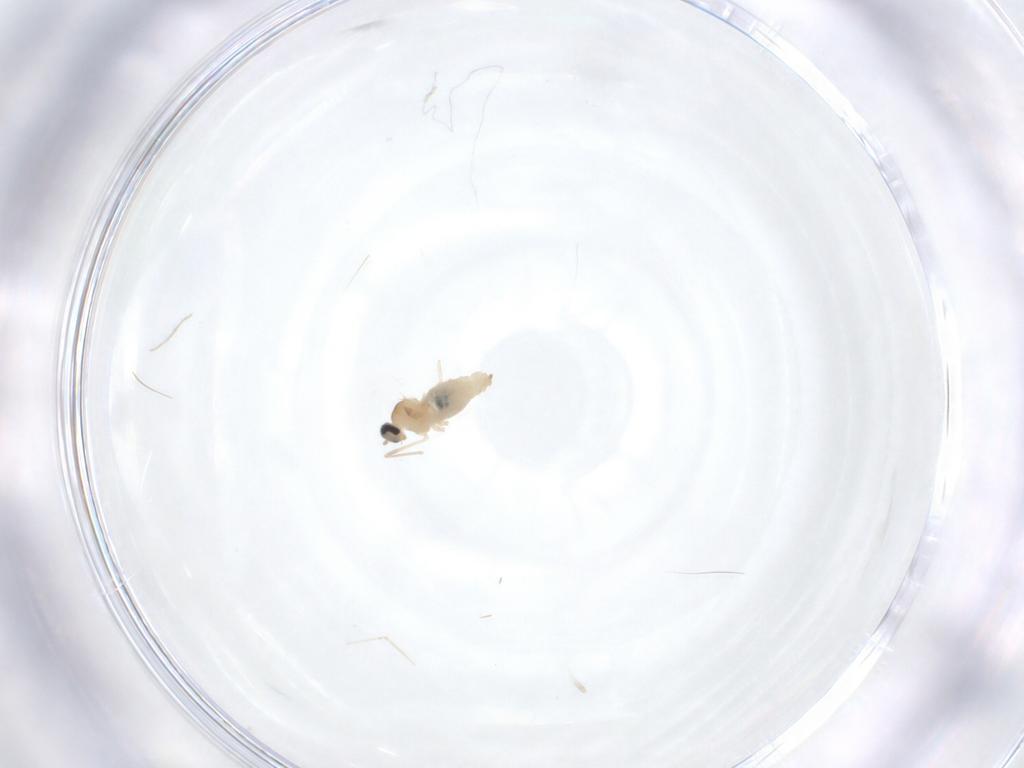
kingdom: Animalia
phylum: Arthropoda
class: Insecta
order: Diptera
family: Cecidomyiidae
